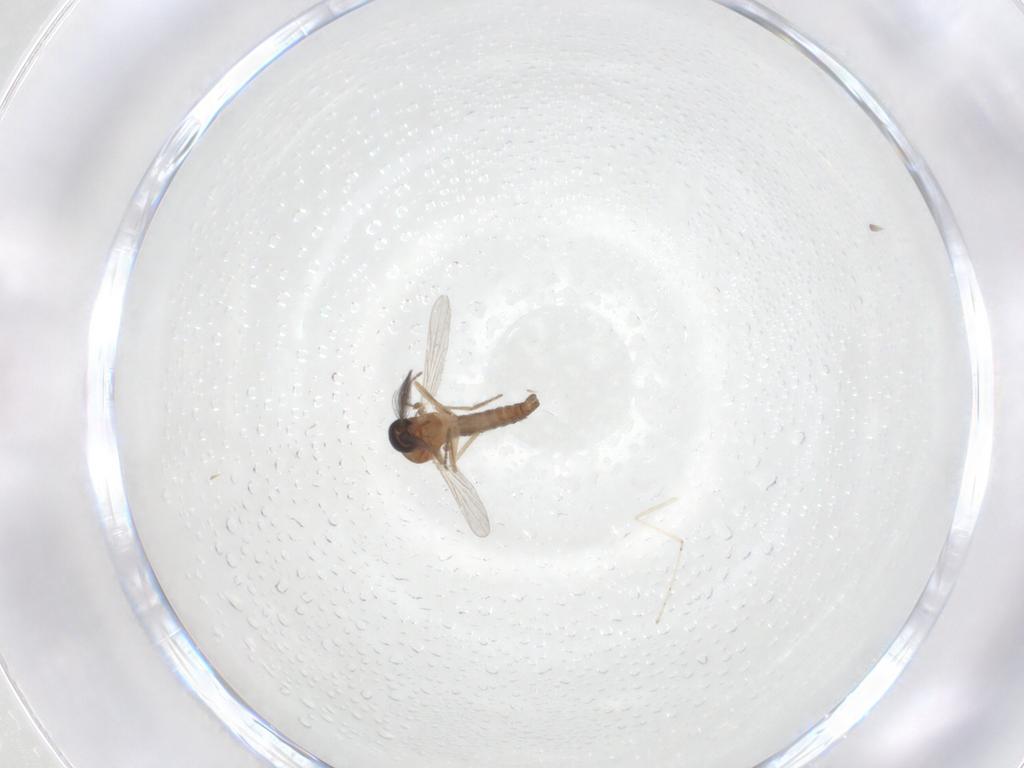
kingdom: Animalia
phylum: Arthropoda
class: Insecta
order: Diptera
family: Ceratopogonidae
